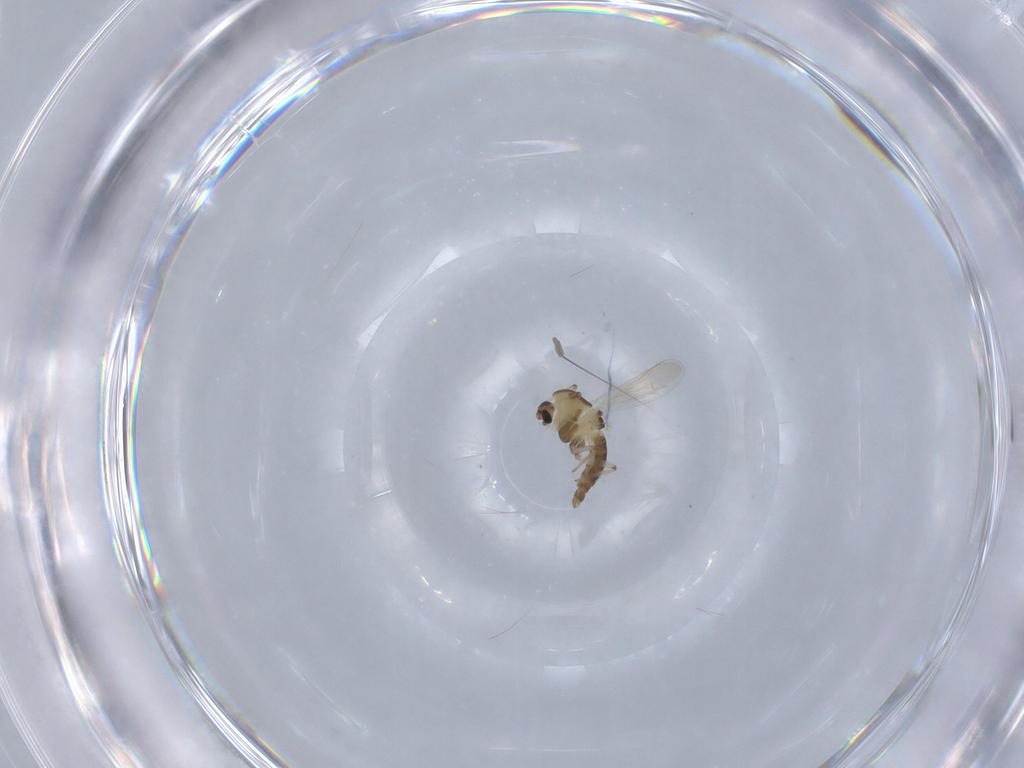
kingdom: Animalia
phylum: Arthropoda
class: Insecta
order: Diptera
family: Chironomidae
